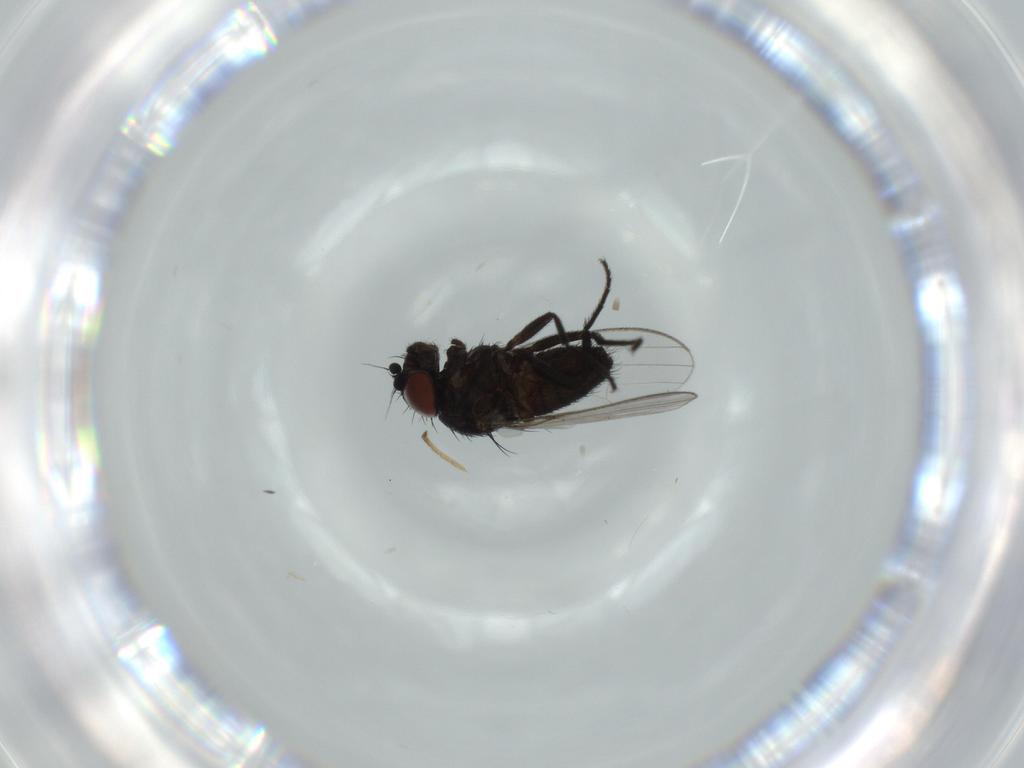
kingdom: Animalia
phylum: Arthropoda
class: Insecta
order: Diptera
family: Milichiidae
